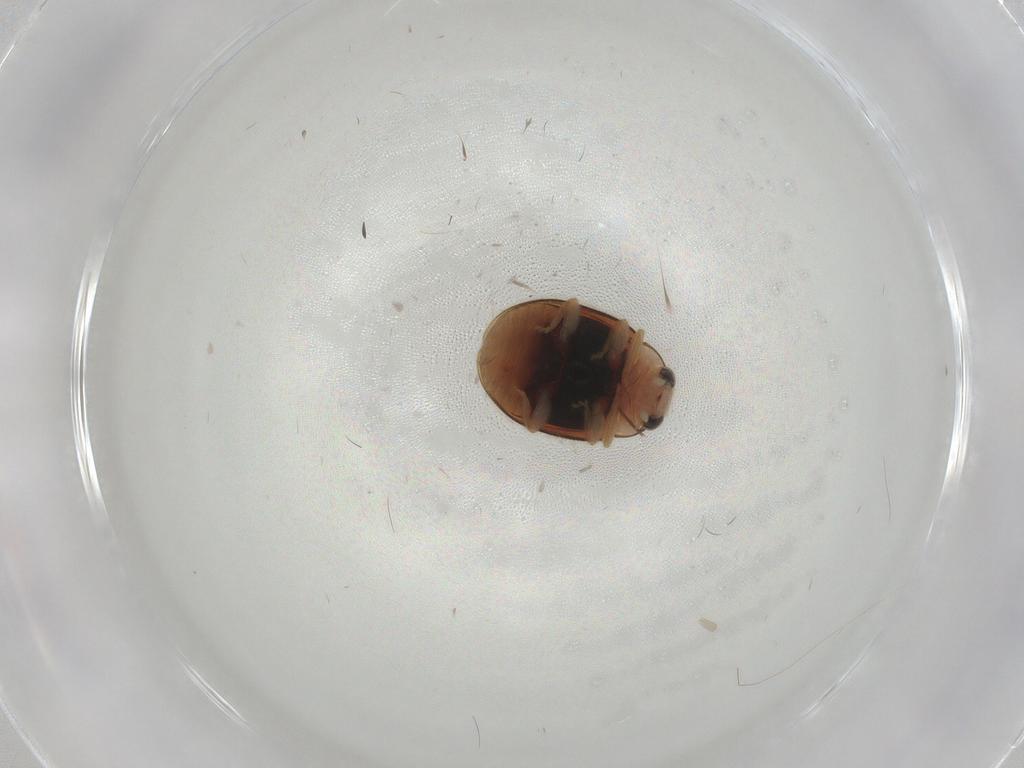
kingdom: Animalia
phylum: Arthropoda
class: Insecta
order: Coleoptera
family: Coccinellidae
